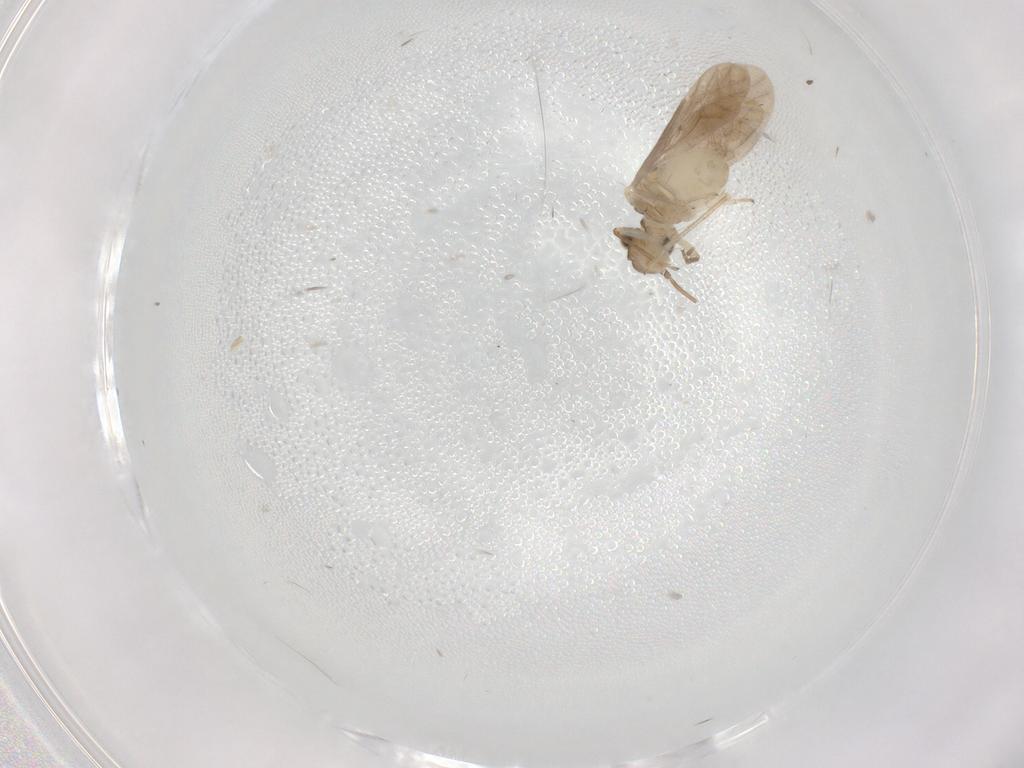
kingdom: Animalia
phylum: Arthropoda
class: Insecta
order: Psocodea
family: Caeciliusidae
